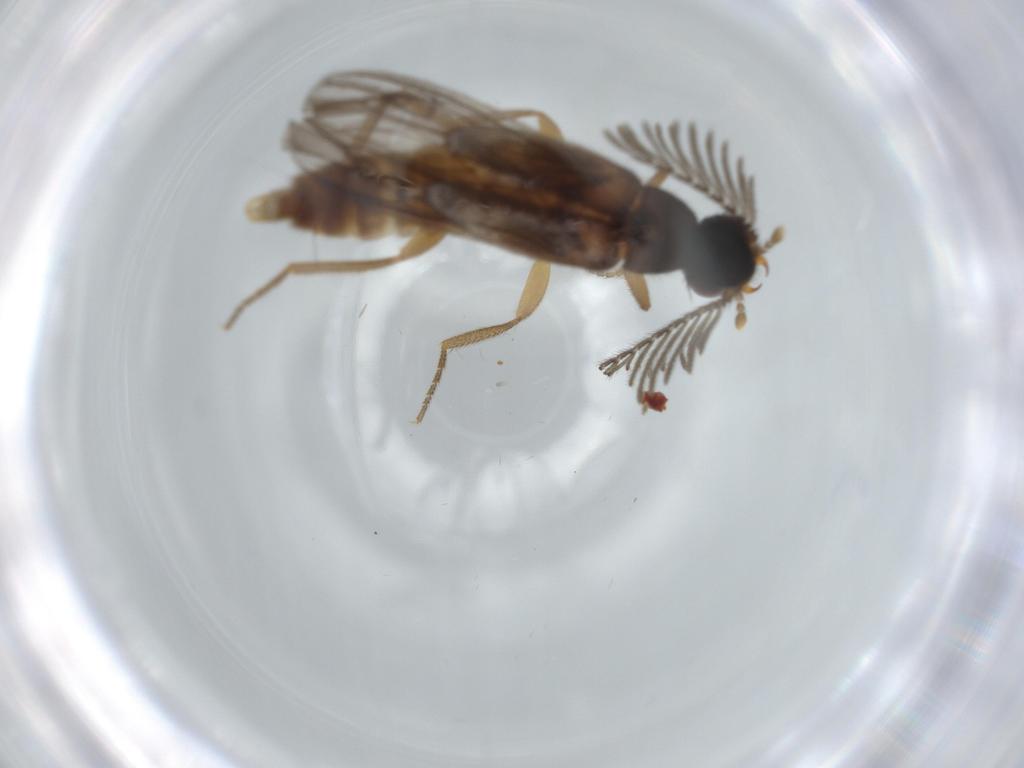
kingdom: Animalia
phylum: Arthropoda
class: Insecta
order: Coleoptera
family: Chrysomelidae
